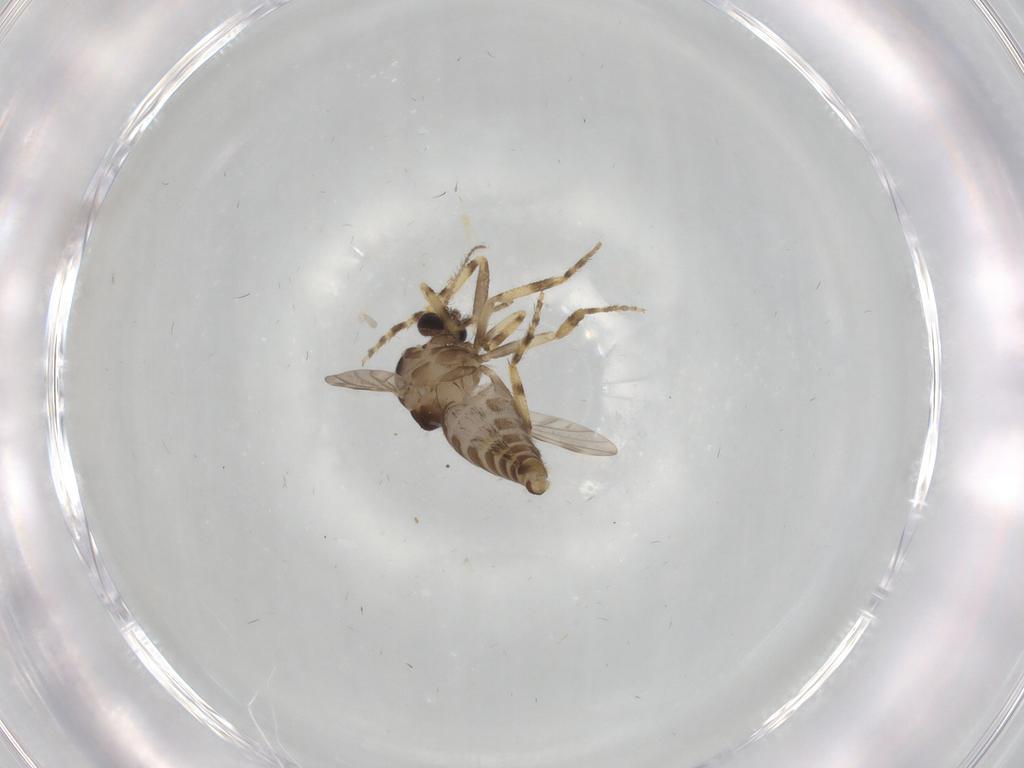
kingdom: Animalia
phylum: Arthropoda
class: Insecta
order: Diptera
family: Ceratopogonidae
